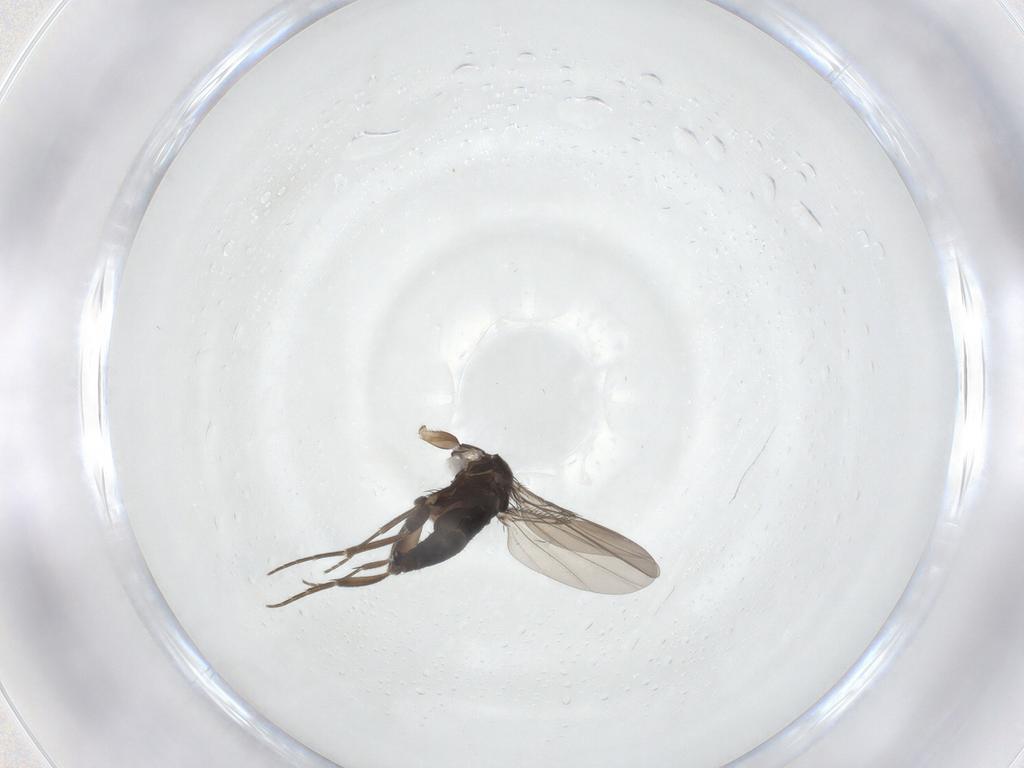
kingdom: Animalia
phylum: Arthropoda
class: Insecta
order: Diptera
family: Phoridae
